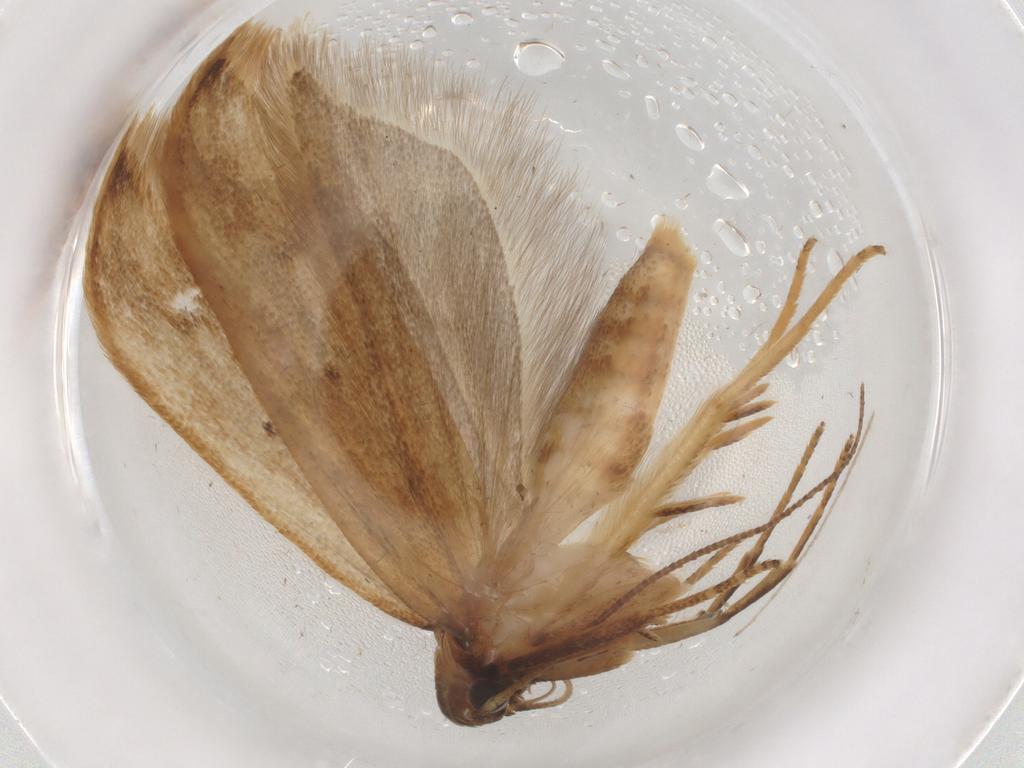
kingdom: Animalia
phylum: Arthropoda
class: Insecta
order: Lepidoptera
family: Gelechiidae
